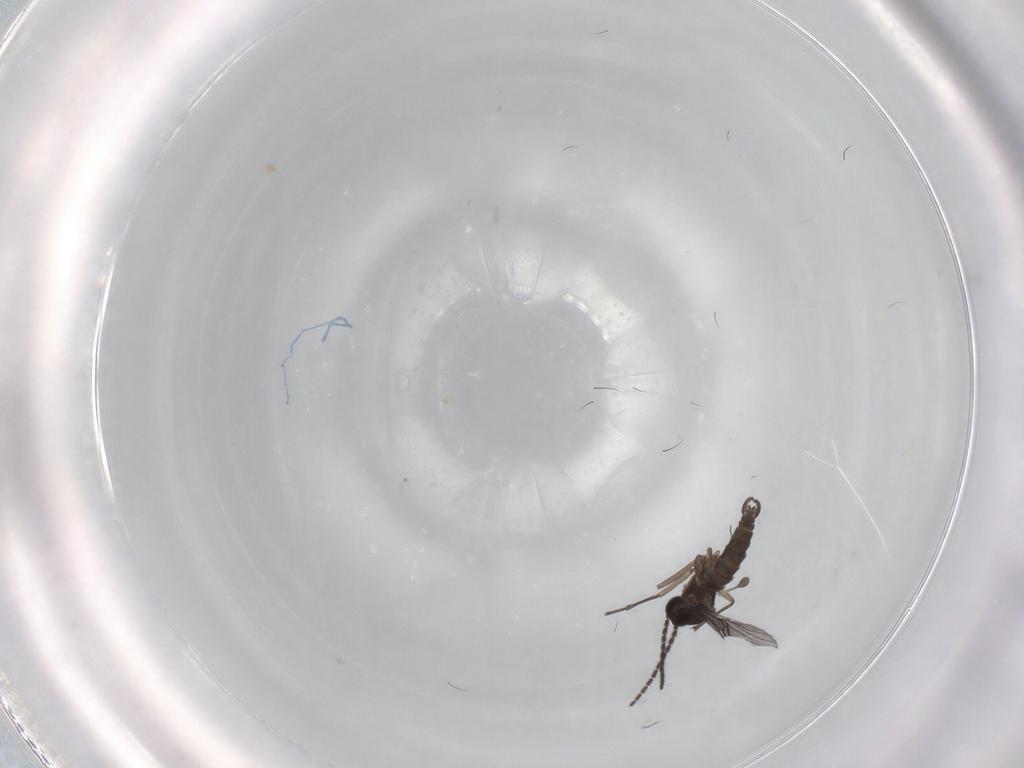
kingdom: Animalia
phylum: Arthropoda
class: Insecta
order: Diptera
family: Sciaridae
